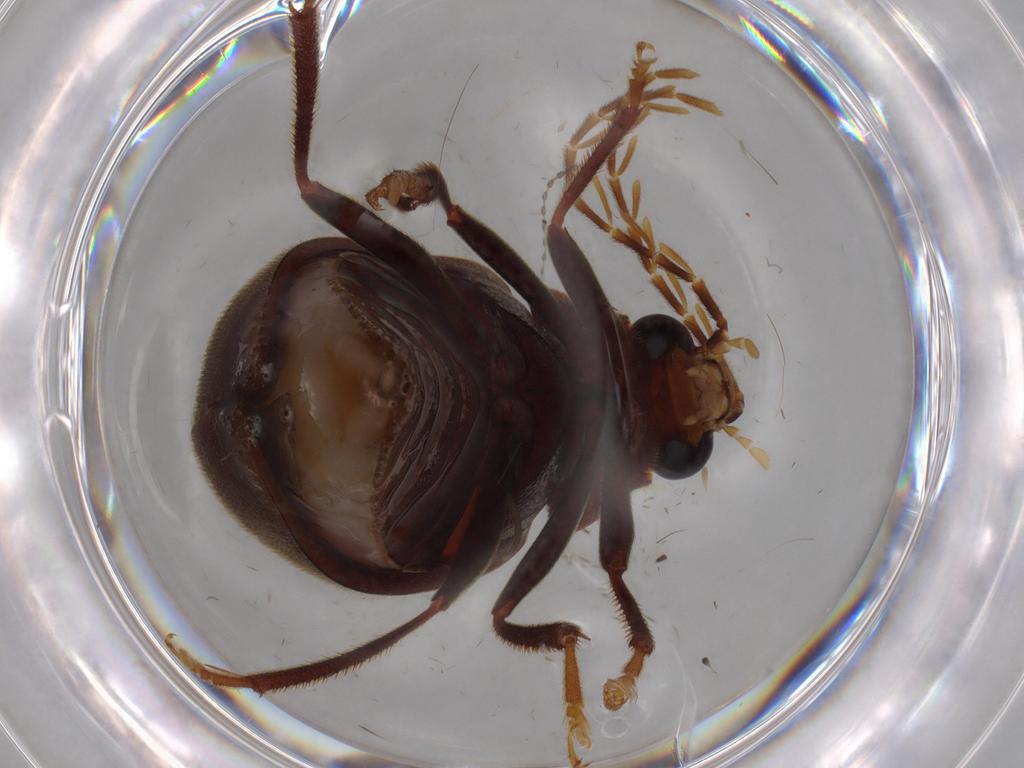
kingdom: Animalia
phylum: Arthropoda
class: Insecta
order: Coleoptera
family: Ptilodactylidae
